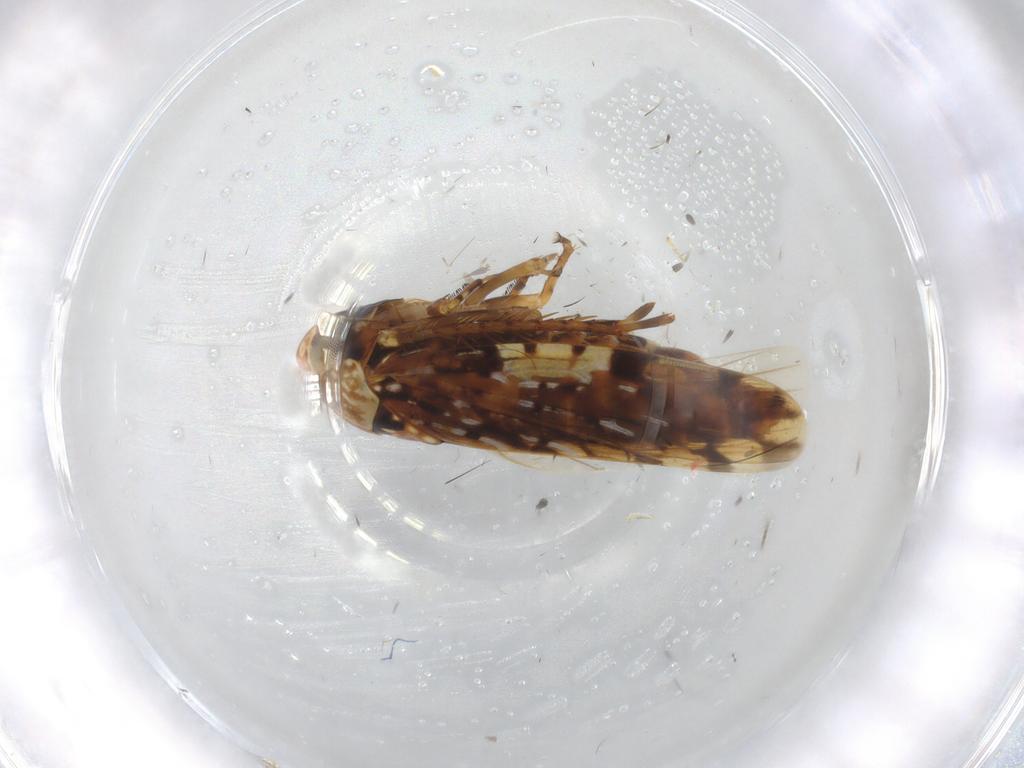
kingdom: Animalia
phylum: Arthropoda
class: Insecta
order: Hemiptera
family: Cicadellidae
